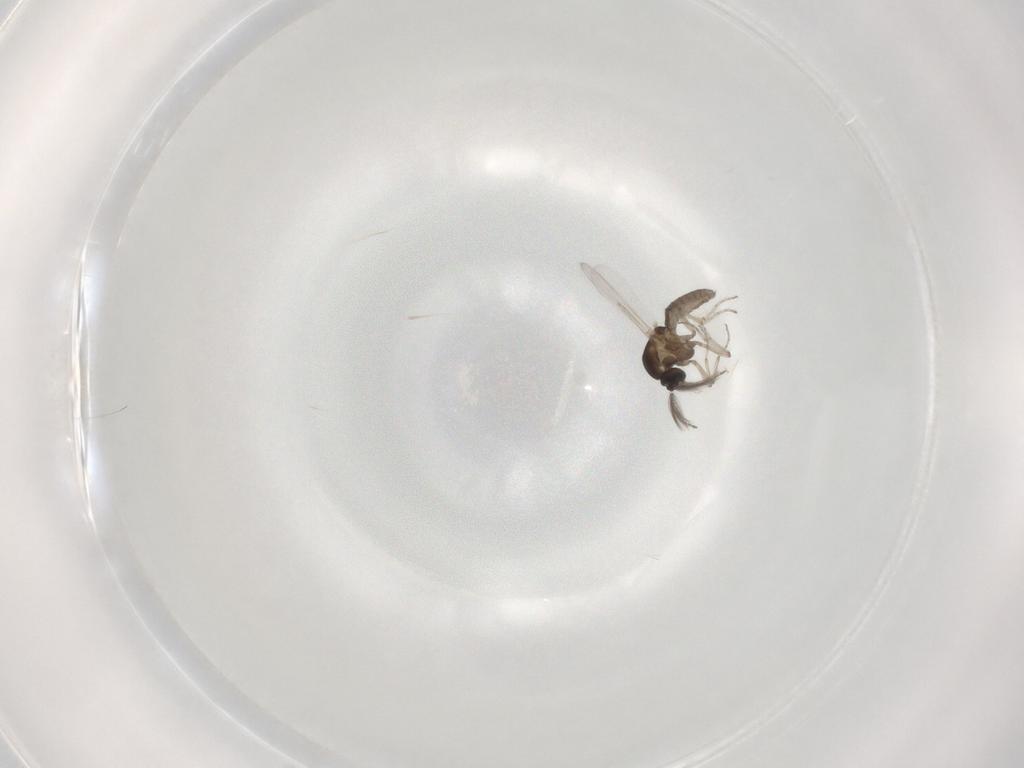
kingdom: Animalia
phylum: Arthropoda
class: Insecta
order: Diptera
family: Ceratopogonidae
